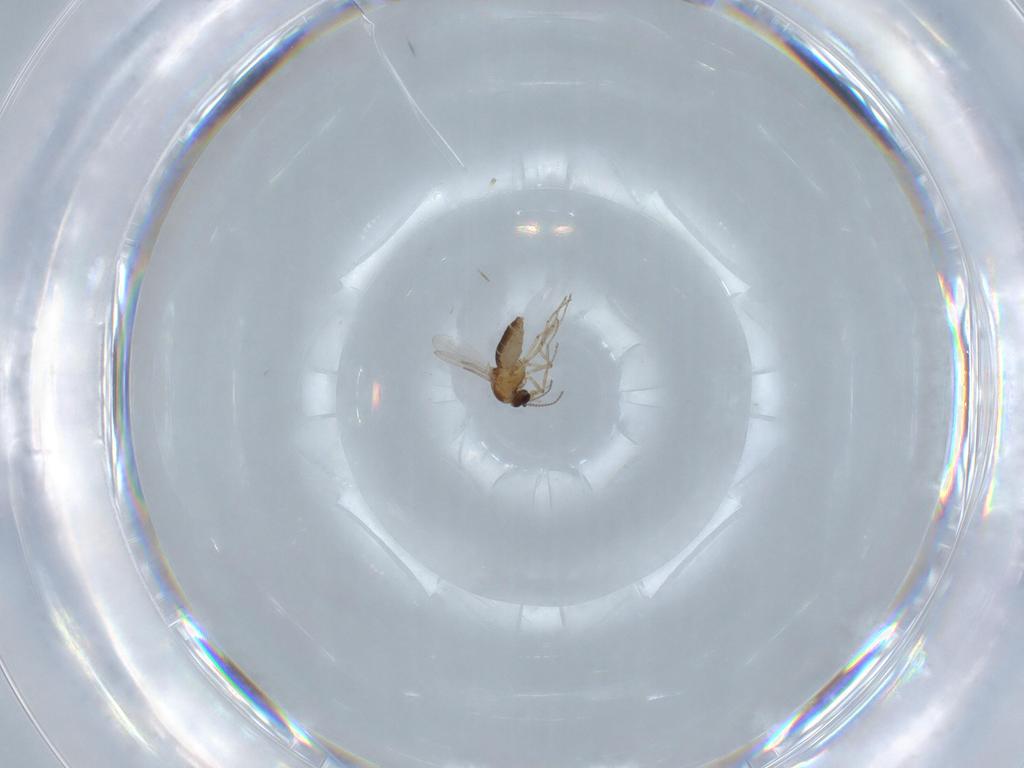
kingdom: Animalia
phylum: Arthropoda
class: Insecta
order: Diptera
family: Ceratopogonidae
